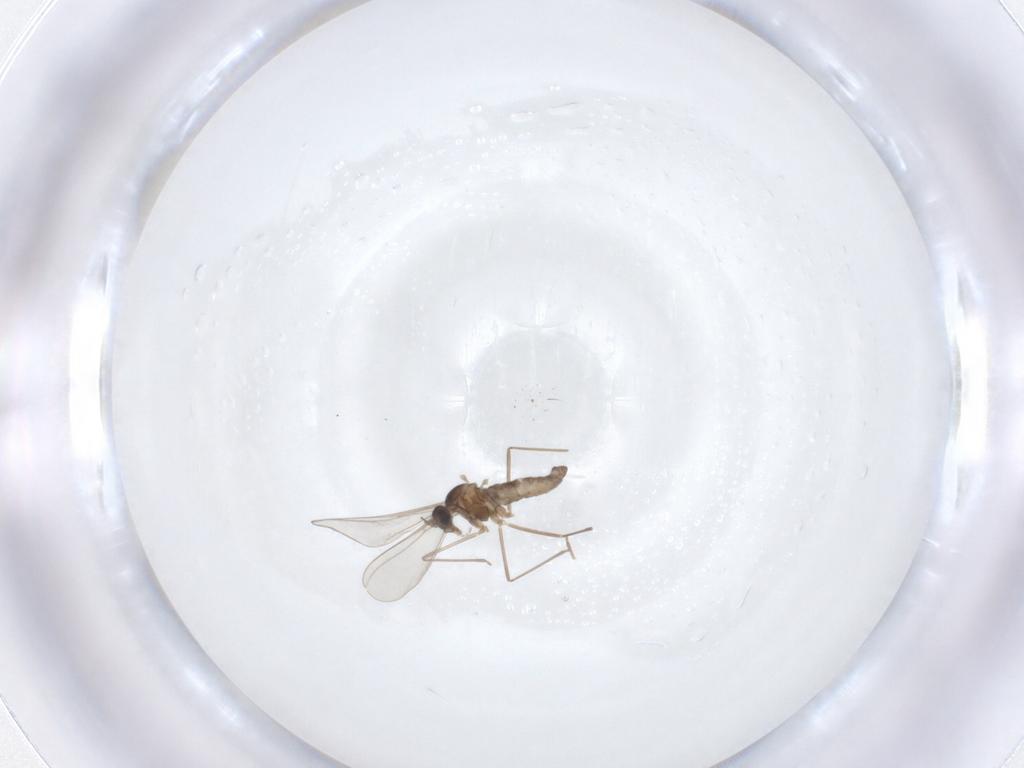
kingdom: Animalia
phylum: Arthropoda
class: Insecta
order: Diptera
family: Cecidomyiidae
